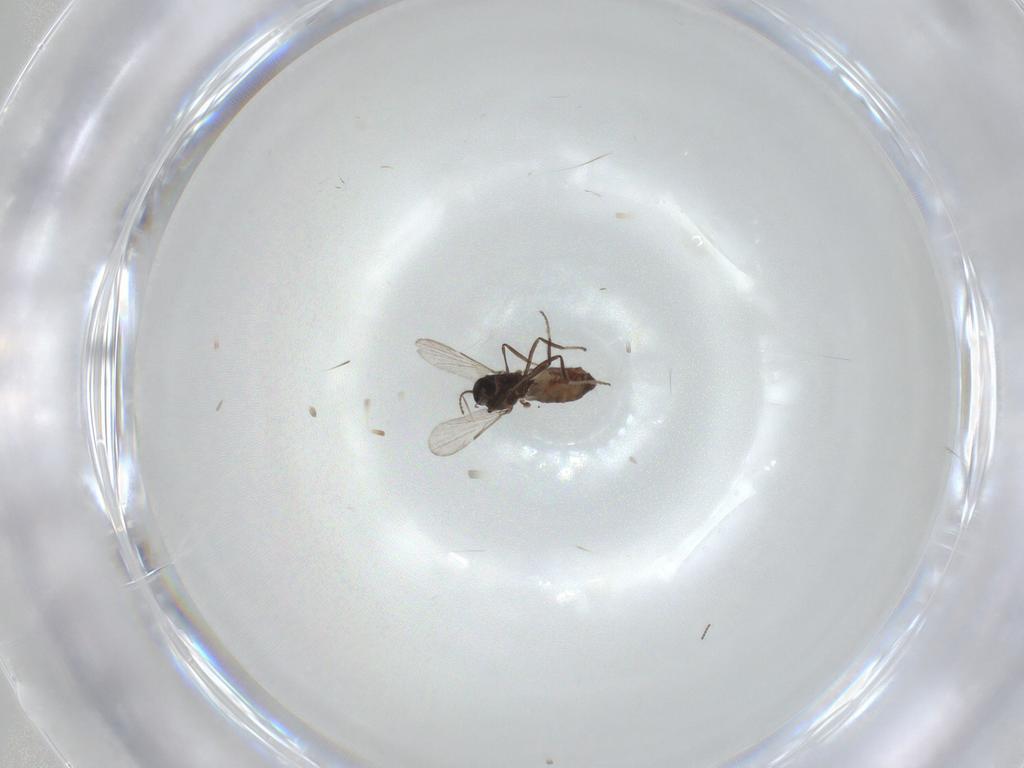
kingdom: Animalia
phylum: Arthropoda
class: Insecta
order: Diptera
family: Ceratopogonidae
